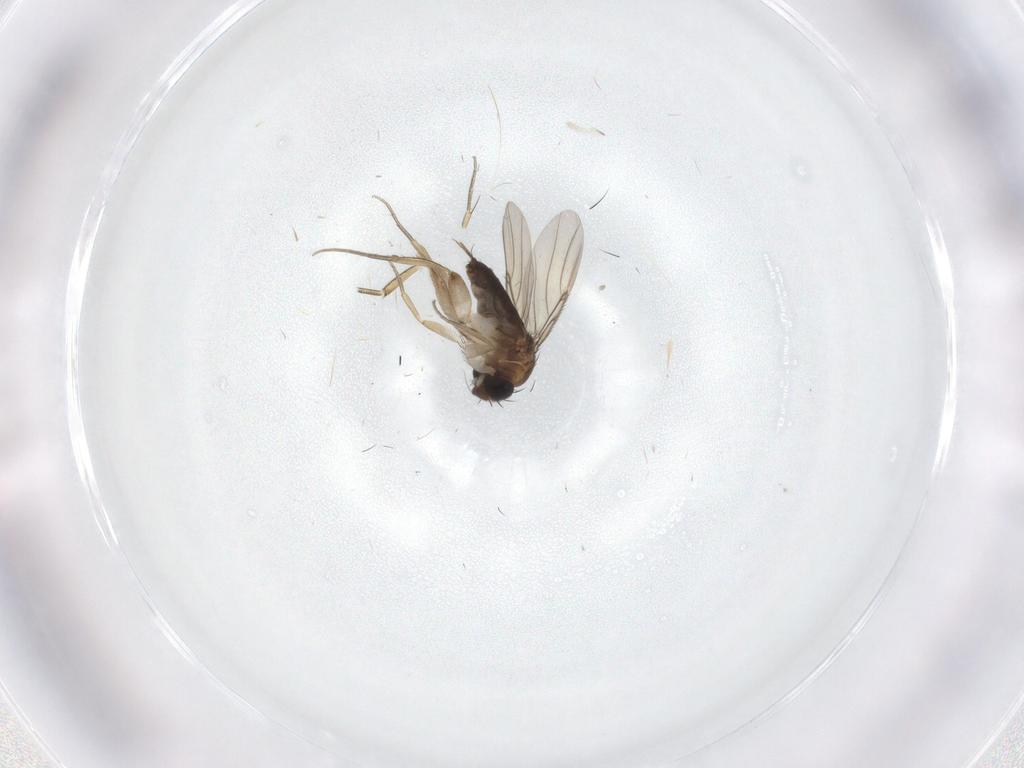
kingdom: Animalia
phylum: Arthropoda
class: Insecta
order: Diptera
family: Phoridae
